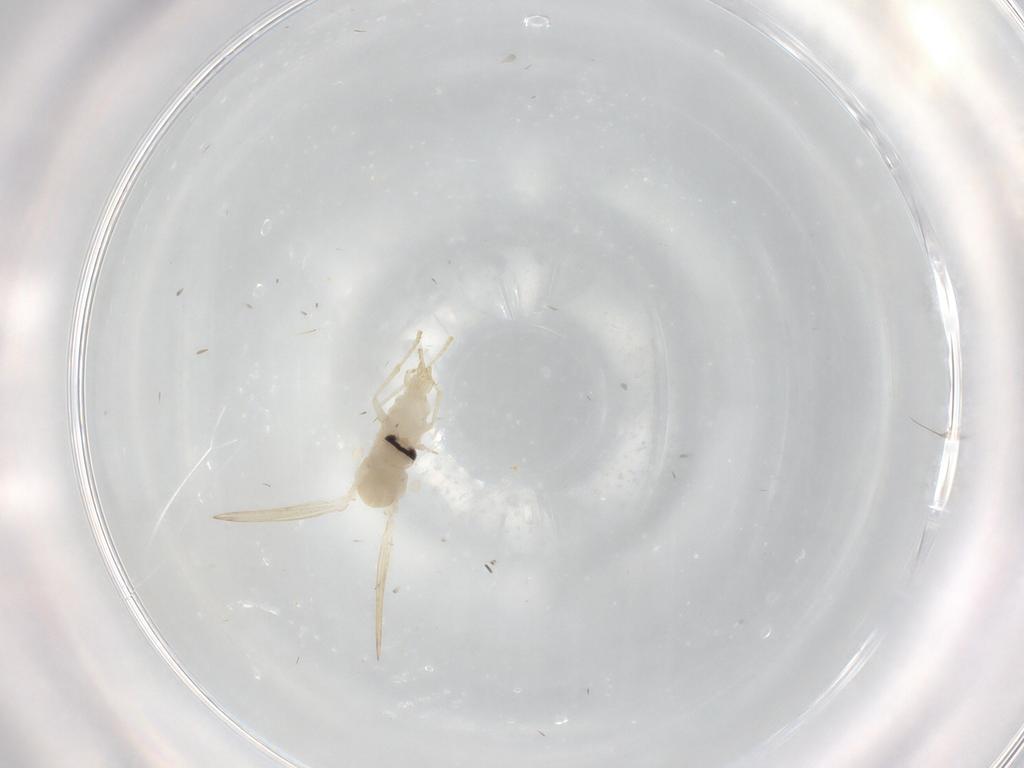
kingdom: Animalia
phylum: Arthropoda
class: Insecta
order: Diptera
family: Psychodidae
